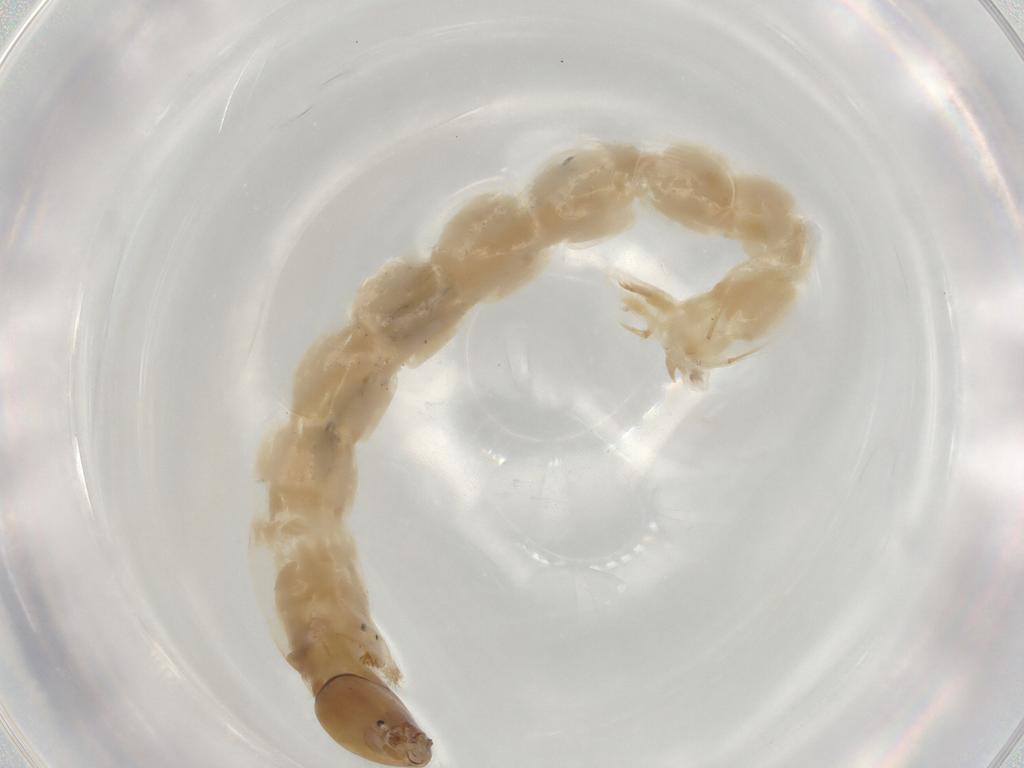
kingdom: Animalia
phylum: Arthropoda
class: Insecta
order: Diptera
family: Chironomidae
